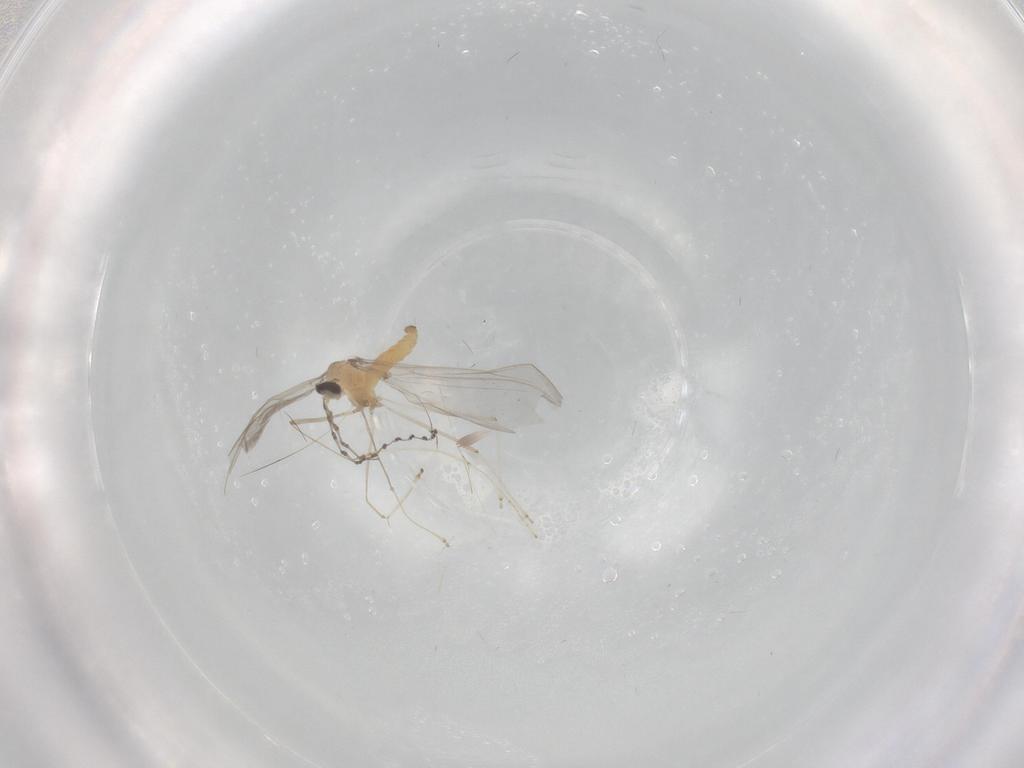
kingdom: Animalia
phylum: Arthropoda
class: Insecta
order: Diptera
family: Cecidomyiidae
